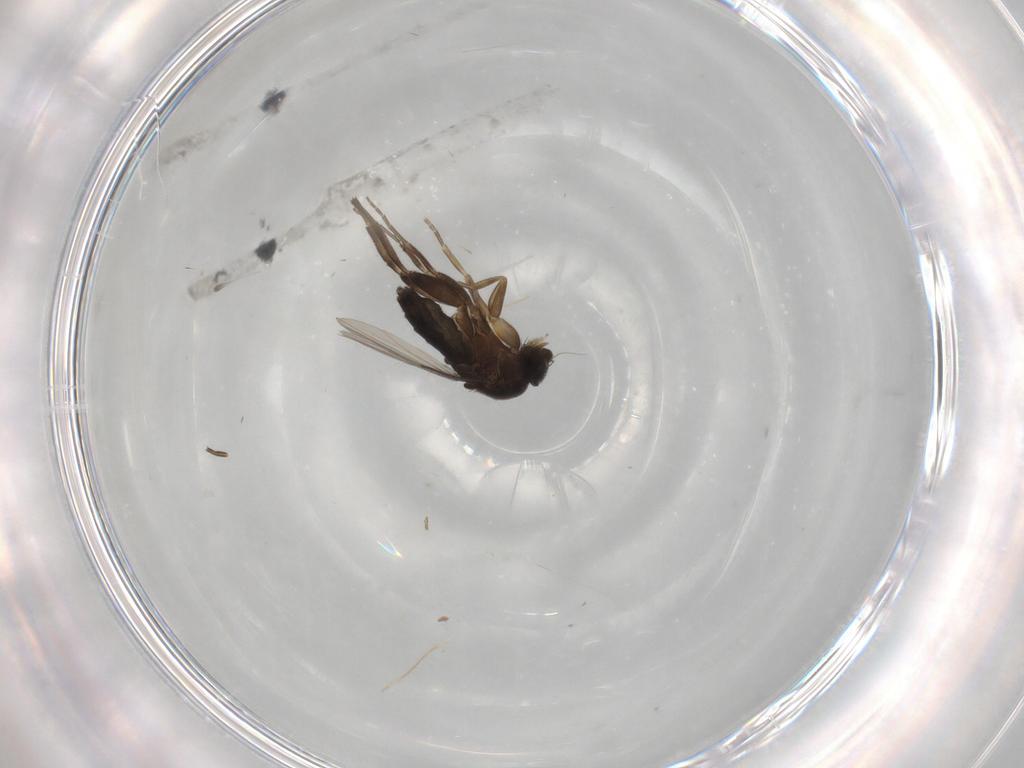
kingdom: Animalia
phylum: Arthropoda
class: Insecta
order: Diptera
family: Phoridae
